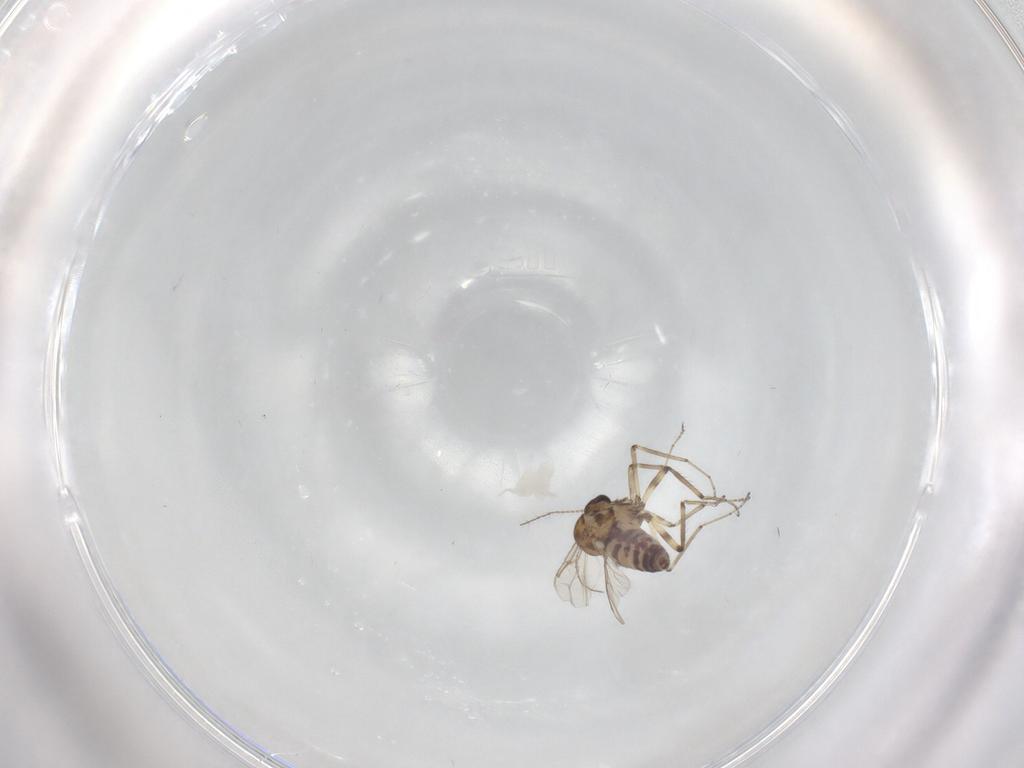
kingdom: Animalia
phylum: Arthropoda
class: Insecta
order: Diptera
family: Ceratopogonidae
